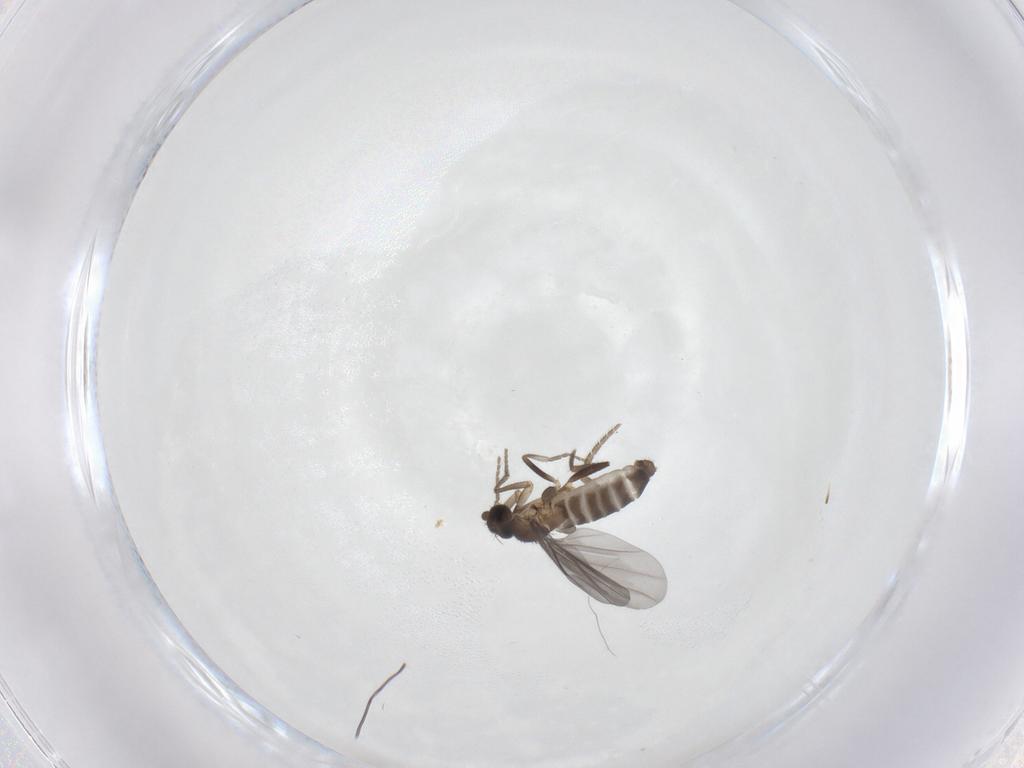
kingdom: Animalia
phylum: Arthropoda
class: Insecta
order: Diptera
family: Phoridae
